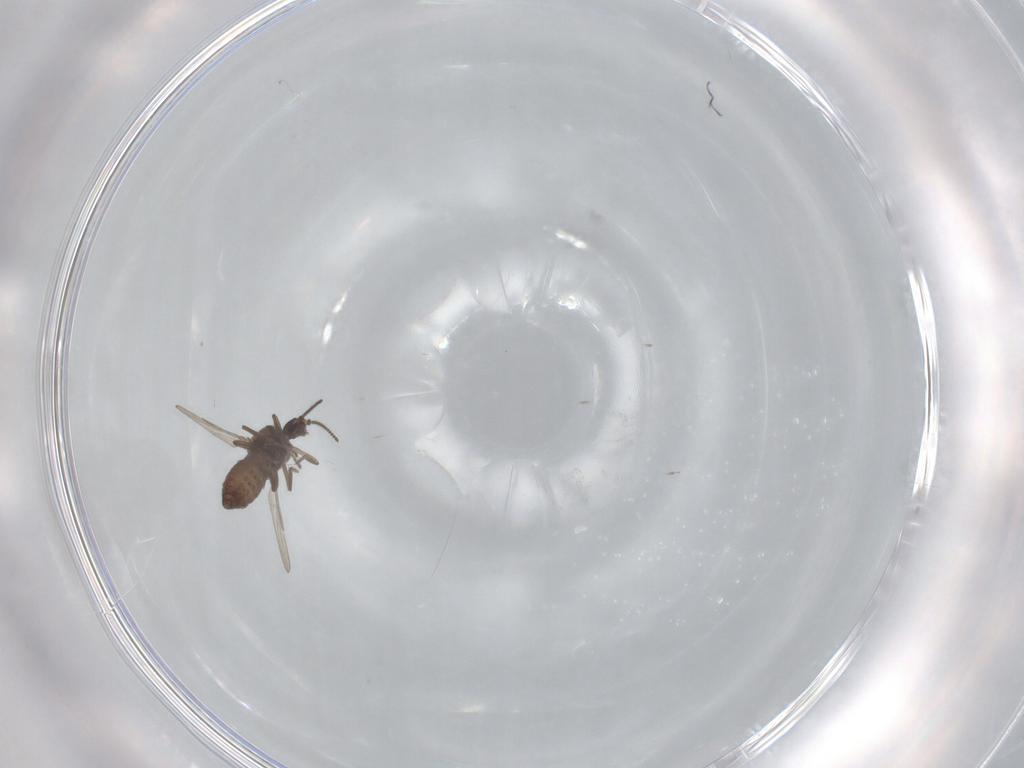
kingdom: Animalia
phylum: Arthropoda
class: Insecta
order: Diptera
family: Ceratopogonidae
